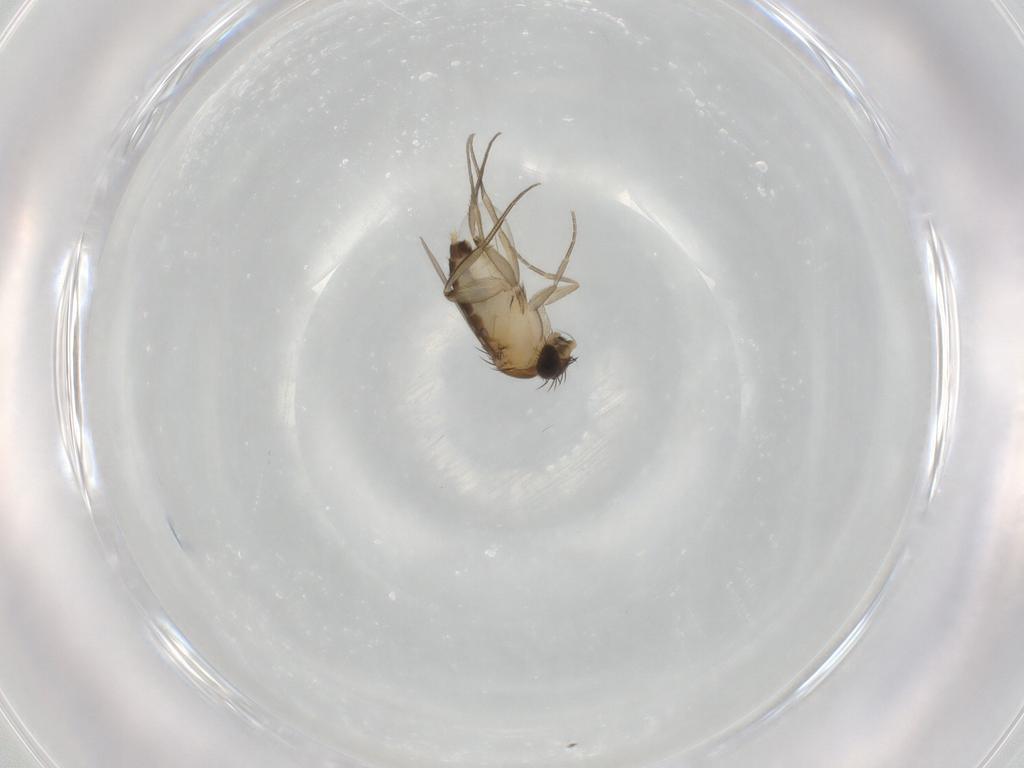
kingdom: Animalia
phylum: Arthropoda
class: Insecta
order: Diptera
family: Phoridae
